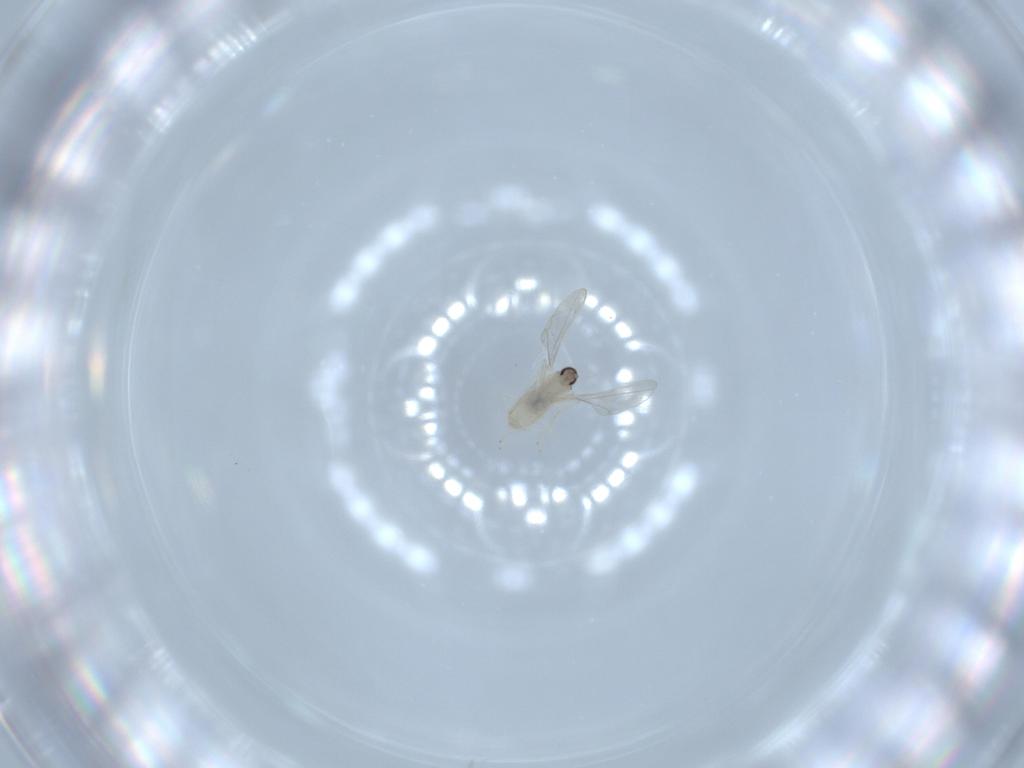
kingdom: Animalia
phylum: Arthropoda
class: Insecta
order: Diptera
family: Cecidomyiidae
